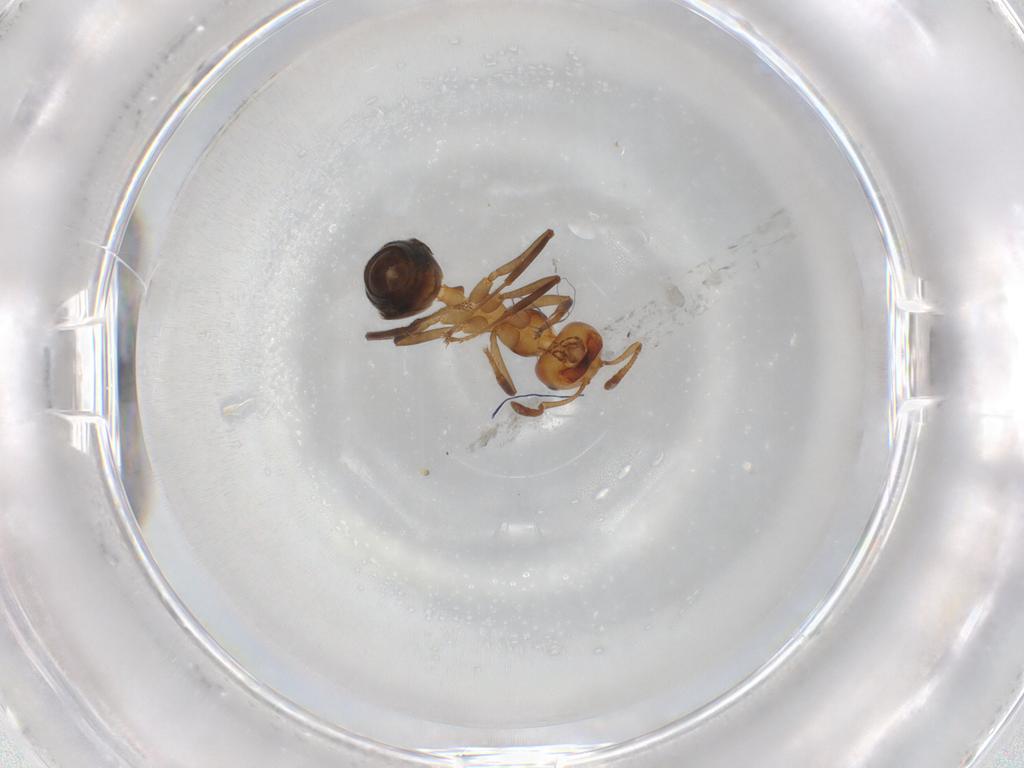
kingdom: Animalia
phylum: Arthropoda
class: Insecta
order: Hymenoptera
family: Formicidae
